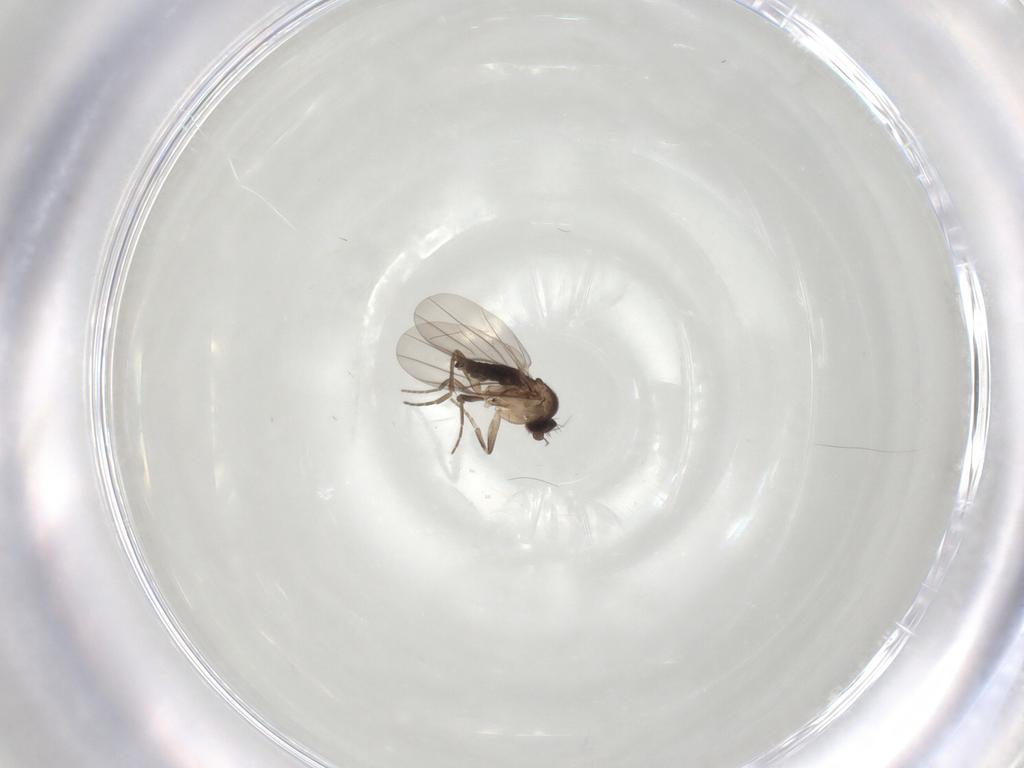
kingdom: Animalia
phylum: Arthropoda
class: Insecta
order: Diptera
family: Phoridae
